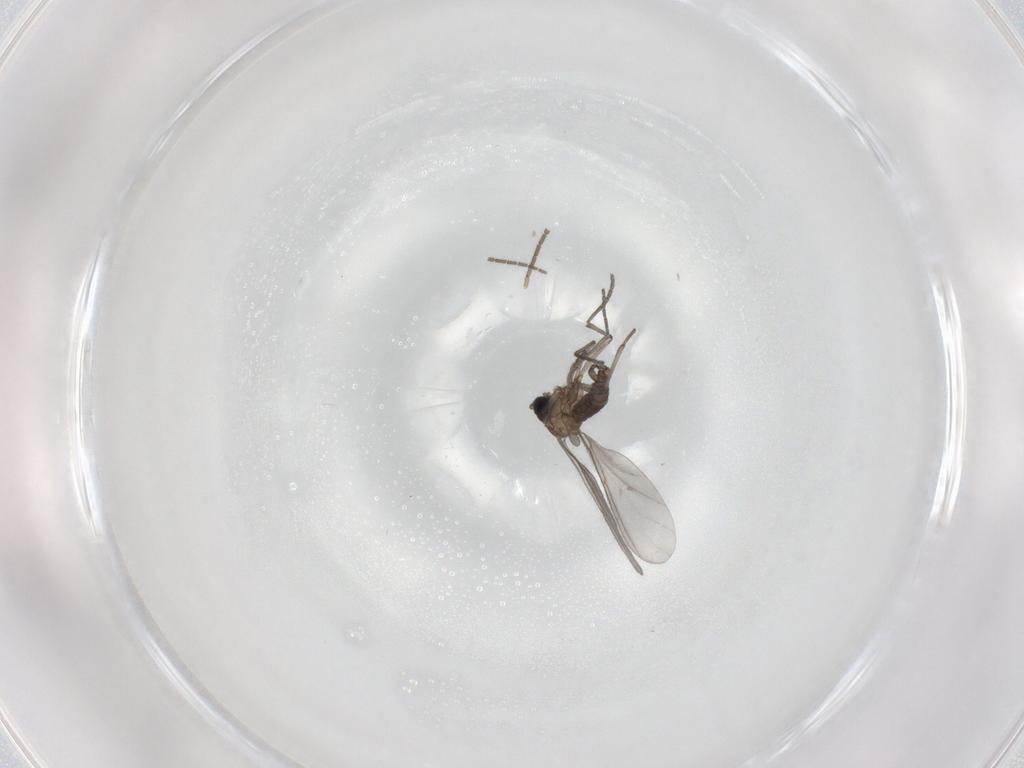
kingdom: Animalia
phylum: Arthropoda
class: Insecta
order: Diptera
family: Sciaridae
